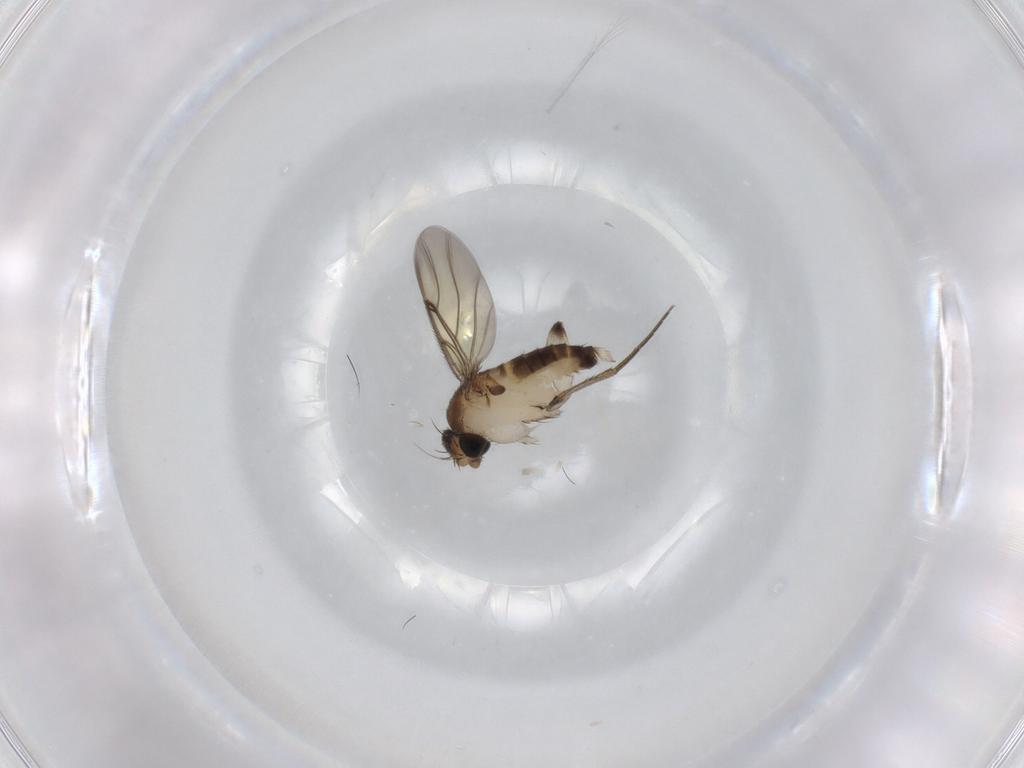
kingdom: Animalia
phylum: Arthropoda
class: Insecta
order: Diptera
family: Phoridae
